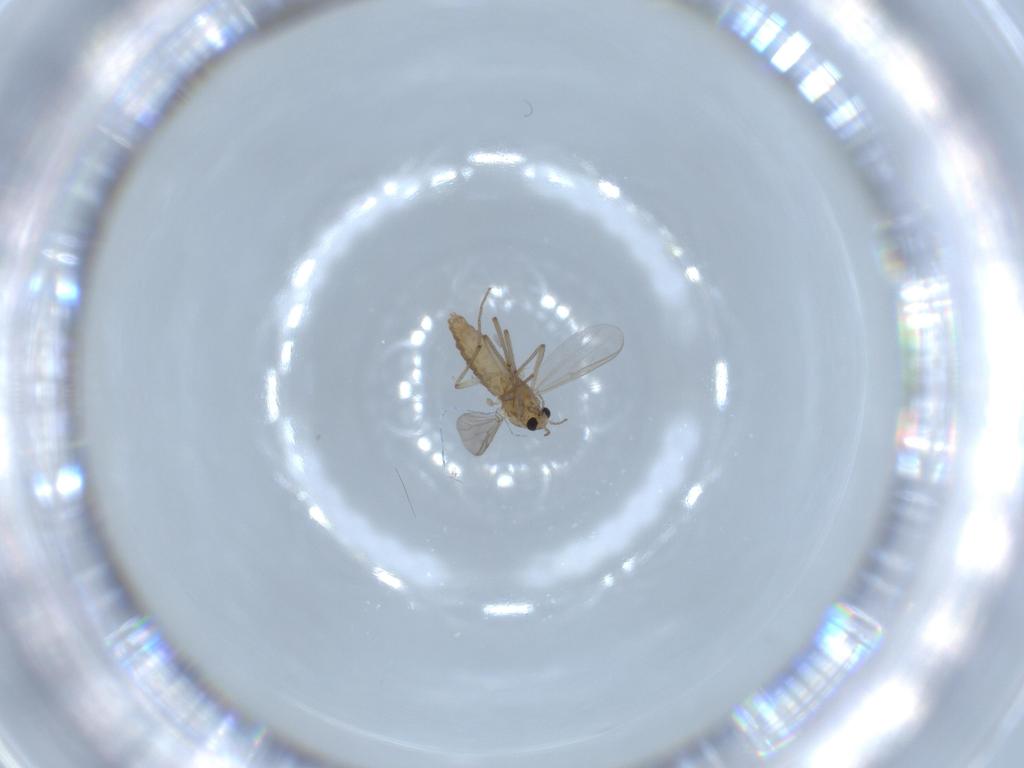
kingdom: Animalia
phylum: Arthropoda
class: Insecta
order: Diptera
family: Chironomidae
